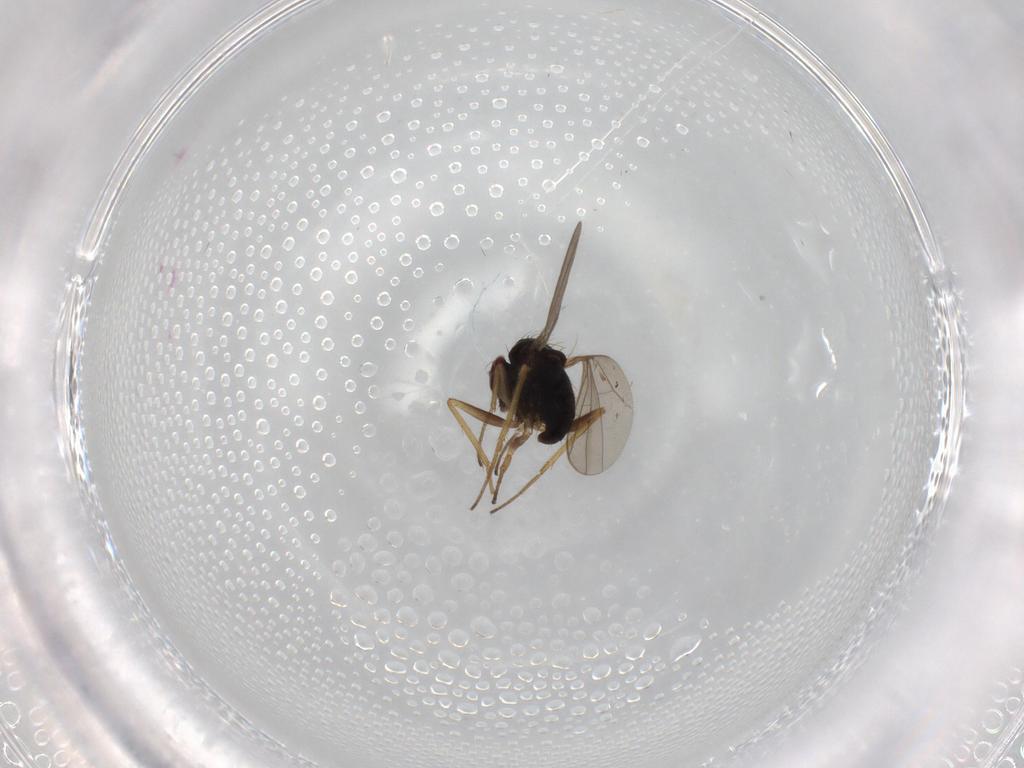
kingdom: Animalia
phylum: Arthropoda
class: Insecta
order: Diptera
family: Dolichopodidae
